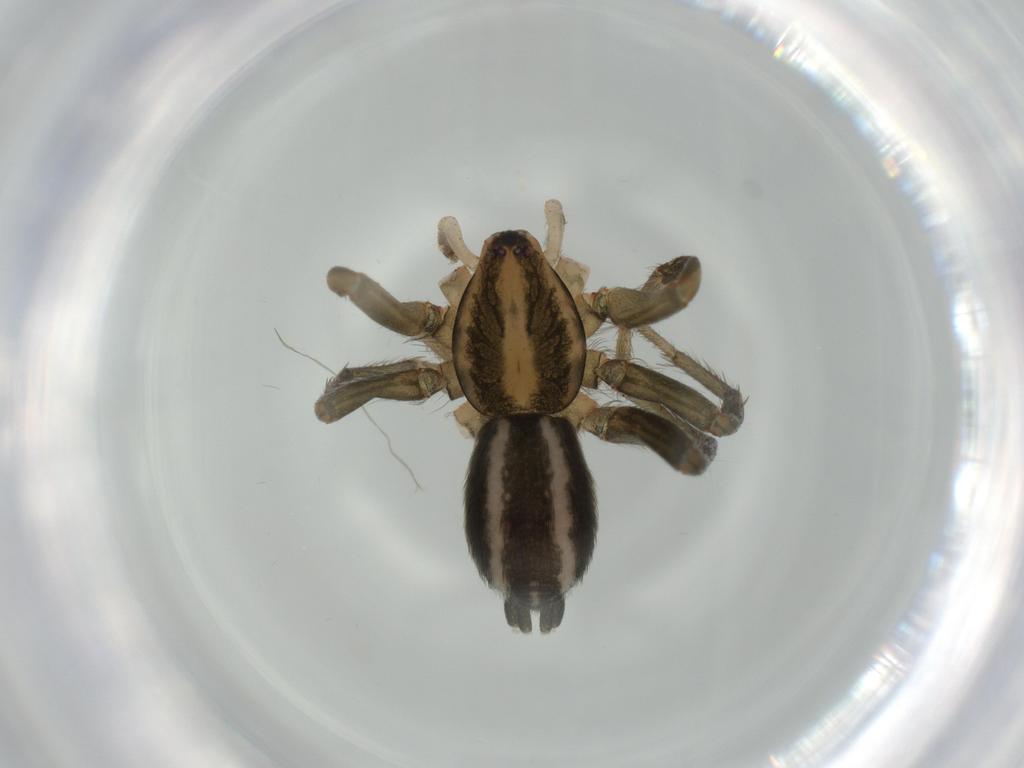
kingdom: Animalia
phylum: Arthropoda
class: Arachnida
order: Araneae
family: Gnaphosidae
